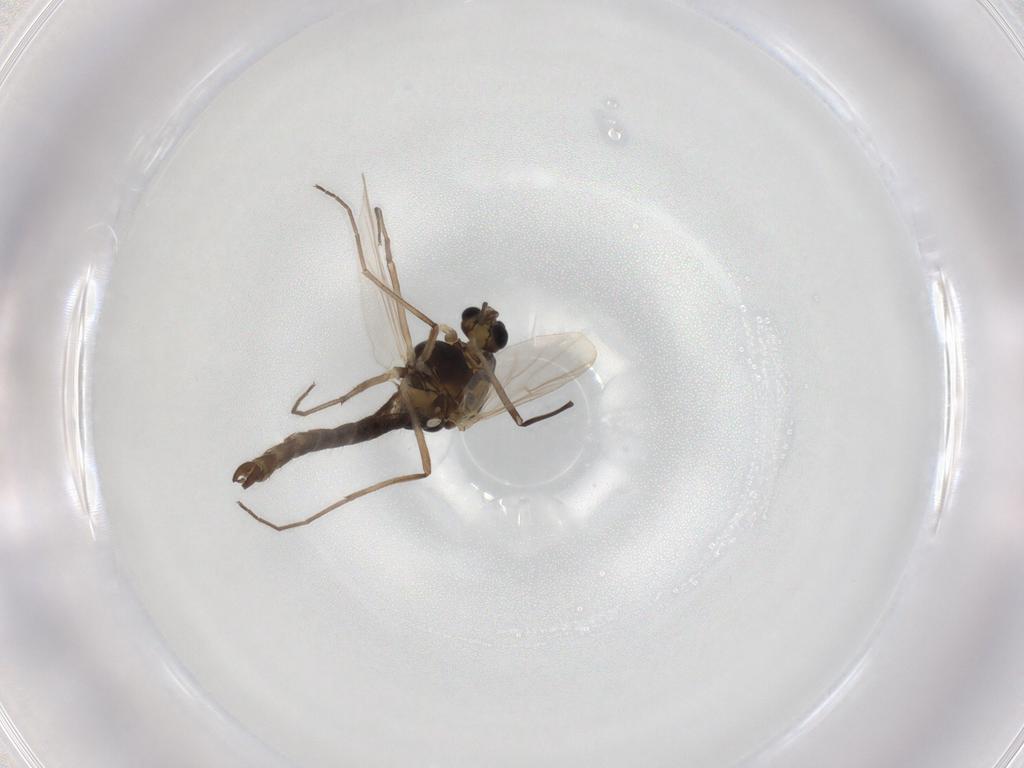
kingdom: Animalia
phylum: Arthropoda
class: Insecta
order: Diptera
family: Chironomidae
